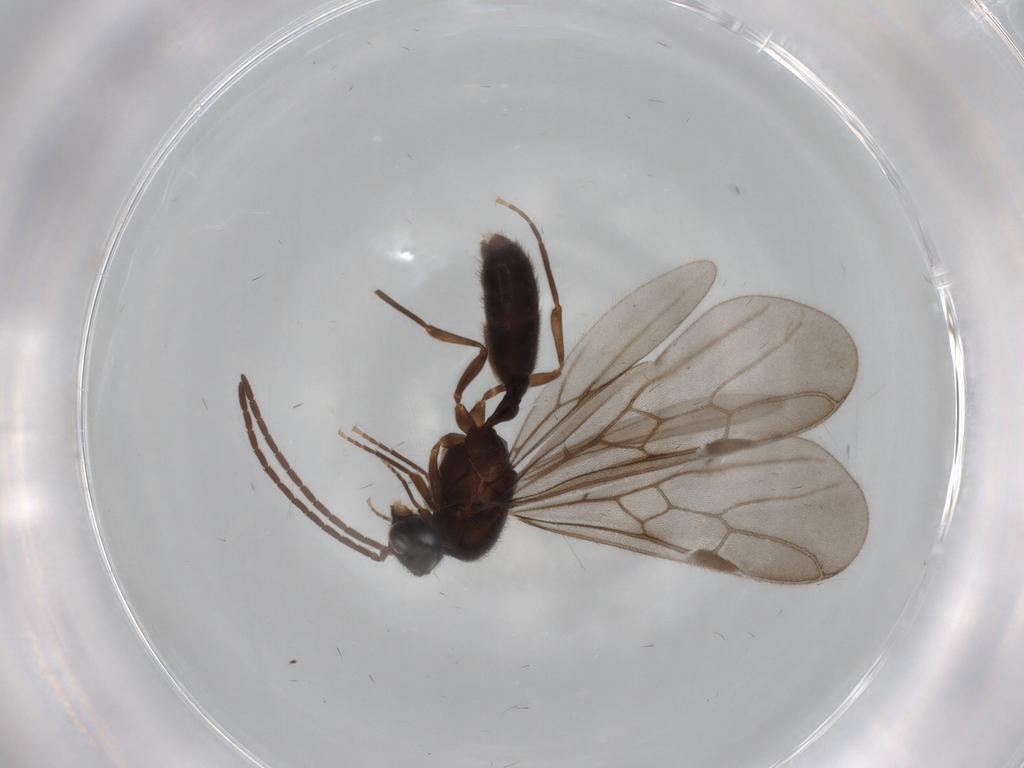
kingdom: Animalia
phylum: Arthropoda
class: Insecta
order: Hymenoptera
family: Formicidae
